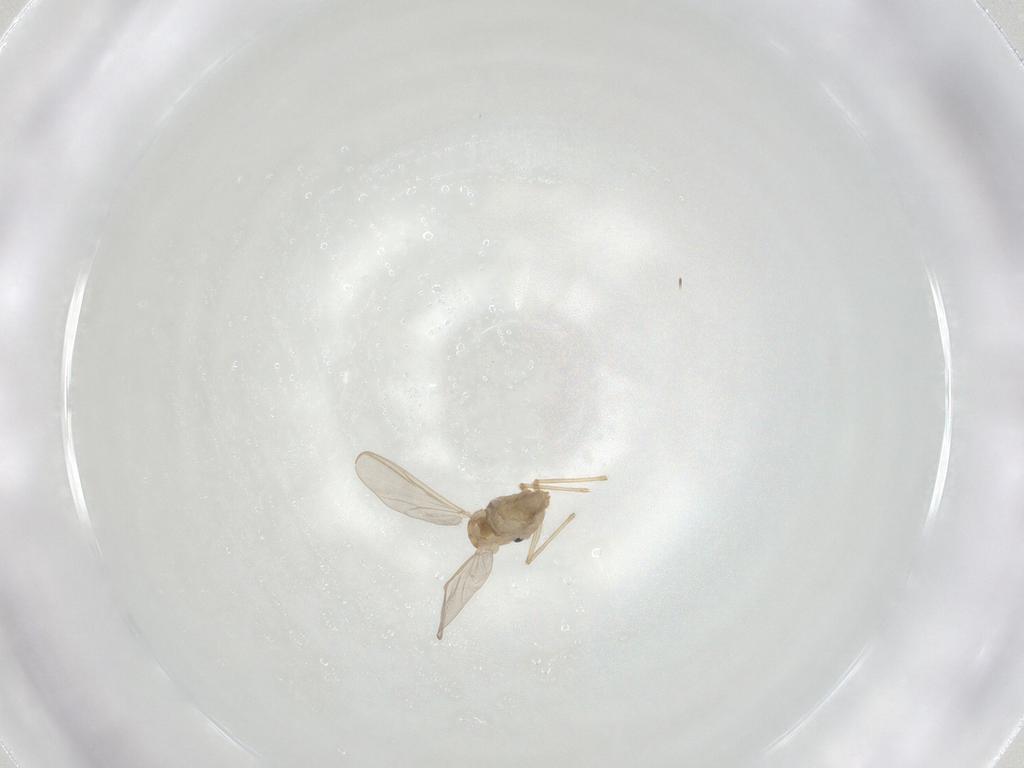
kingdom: Animalia
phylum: Arthropoda
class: Insecta
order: Diptera
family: Chironomidae
